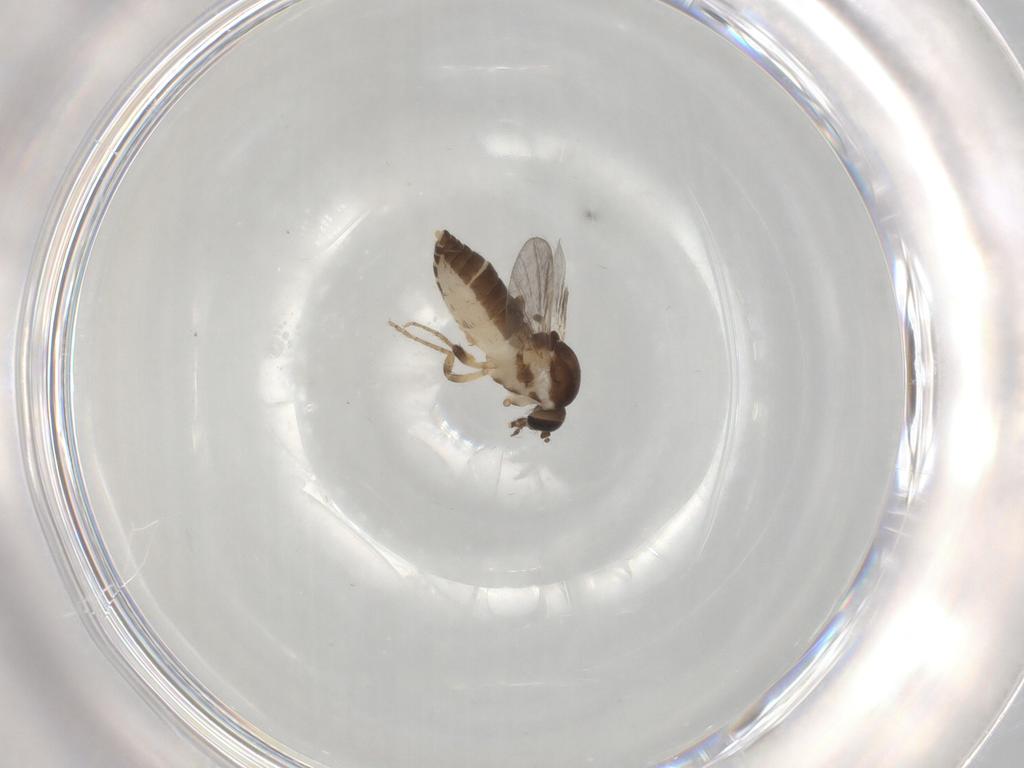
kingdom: Animalia
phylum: Arthropoda
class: Insecta
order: Diptera
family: Ceratopogonidae
